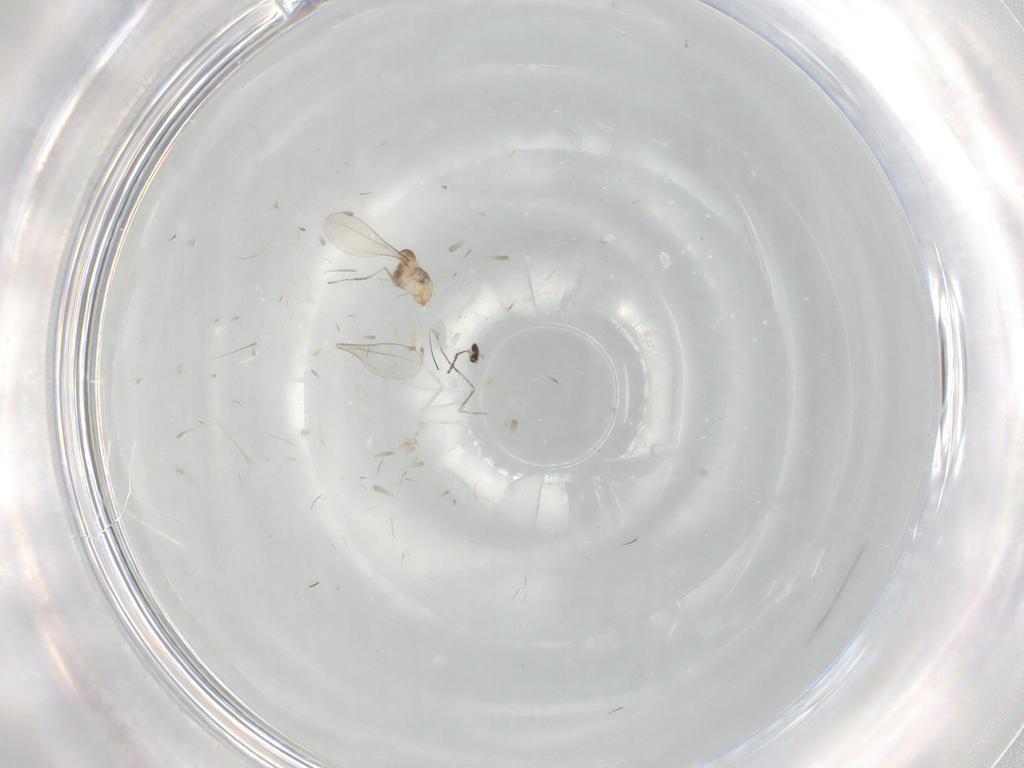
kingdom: Animalia
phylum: Arthropoda
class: Insecta
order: Diptera
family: Cecidomyiidae
